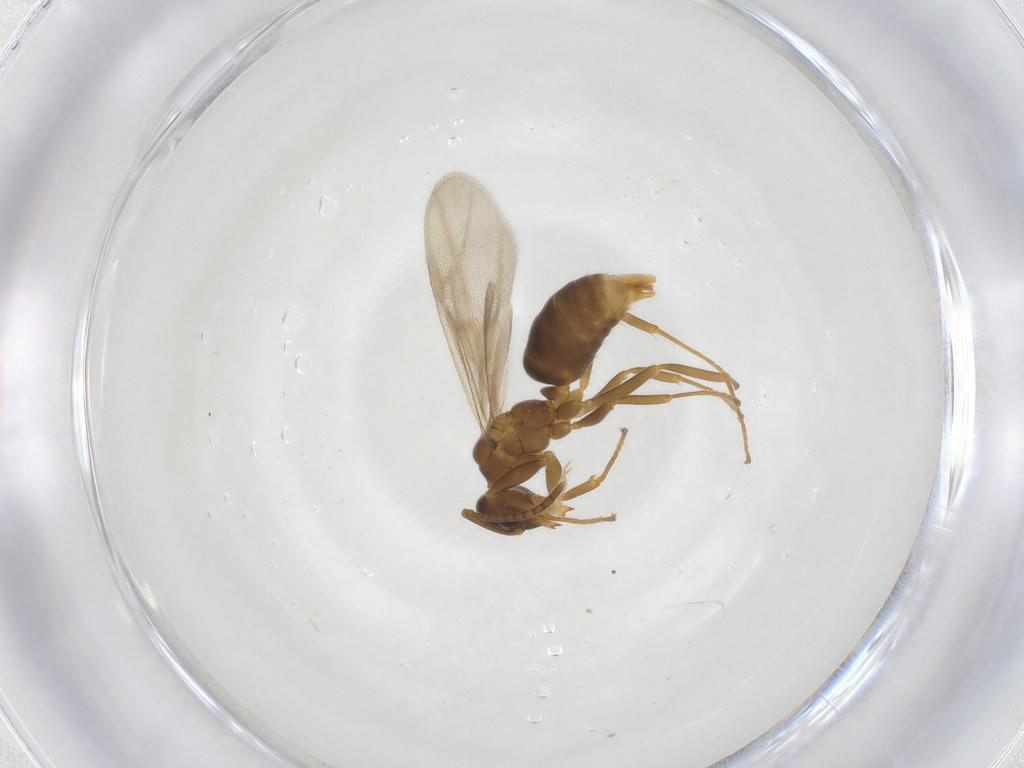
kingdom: Animalia
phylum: Arthropoda
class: Insecta
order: Hymenoptera
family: Formicidae
